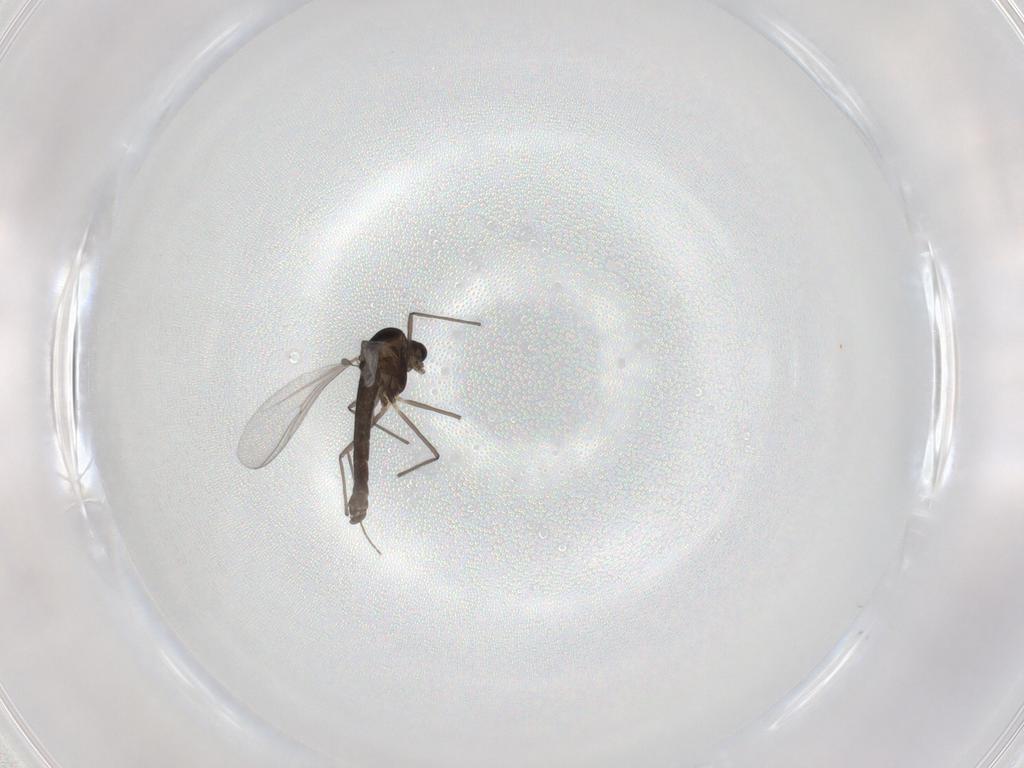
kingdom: Animalia
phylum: Arthropoda
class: Insecta
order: Diptera
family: Chironomidae
